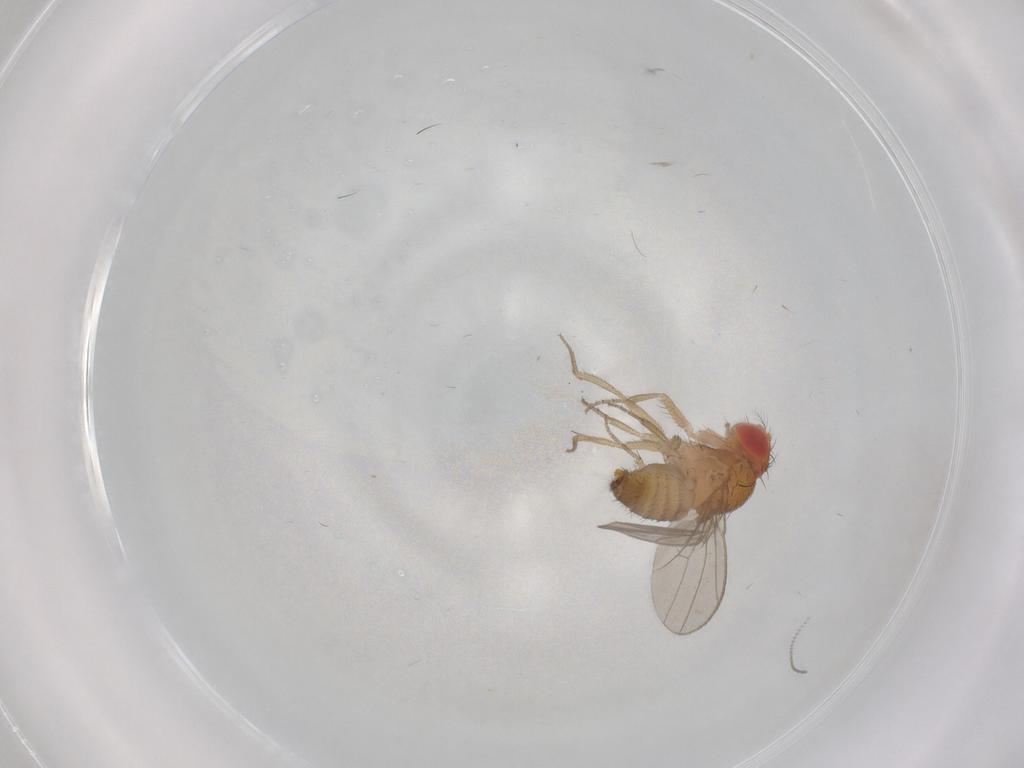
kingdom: Animalia
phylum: Arthropoda
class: Insecta
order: Diptera
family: Drosophilidae
